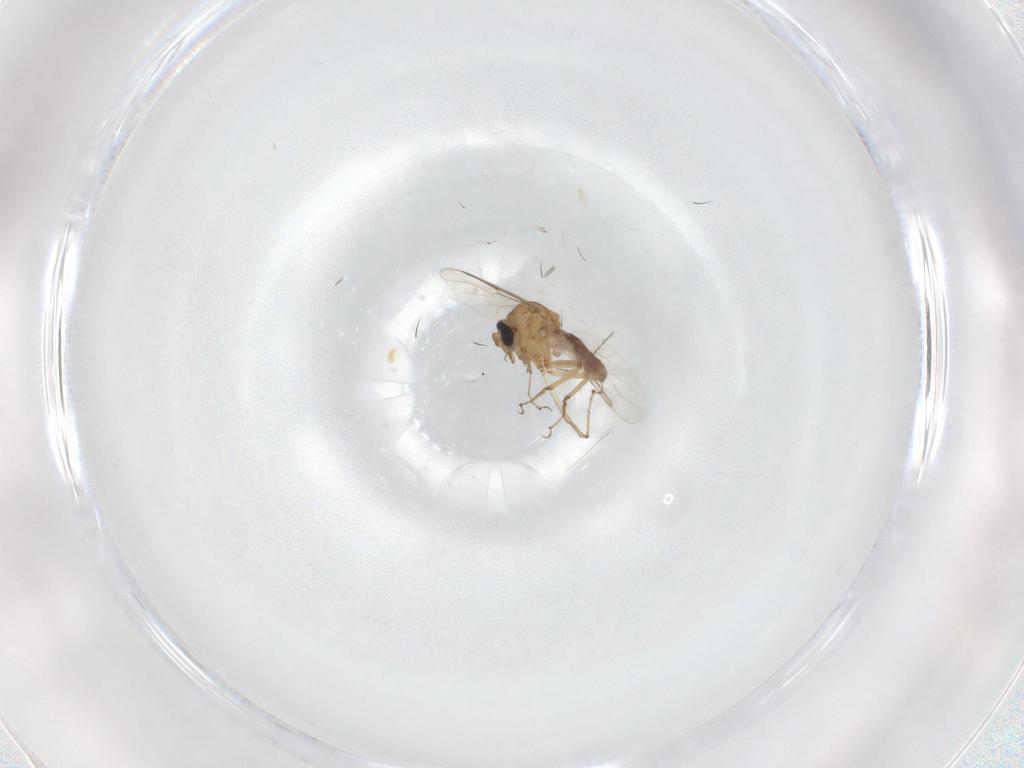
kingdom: Animalia
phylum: Arthropoda
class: Insecta
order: Diptera
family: Ceratopogonidae
